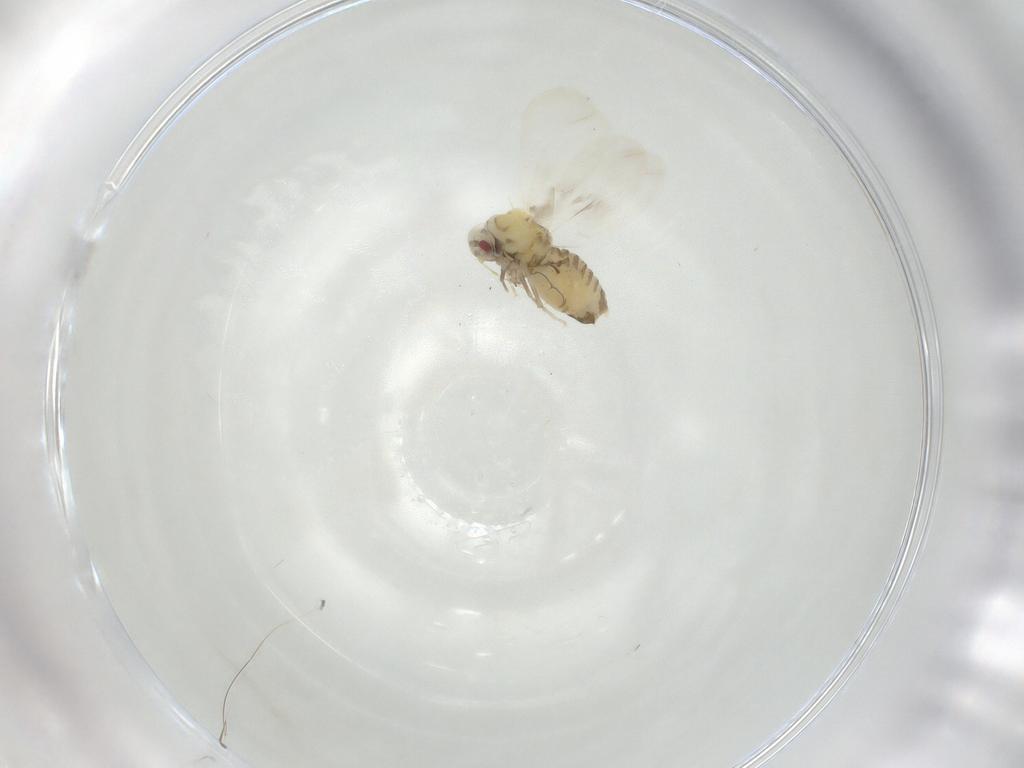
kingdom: Animalia
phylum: Arthropoda
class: Insecta
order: Hemiptera
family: Aleyrodidae
